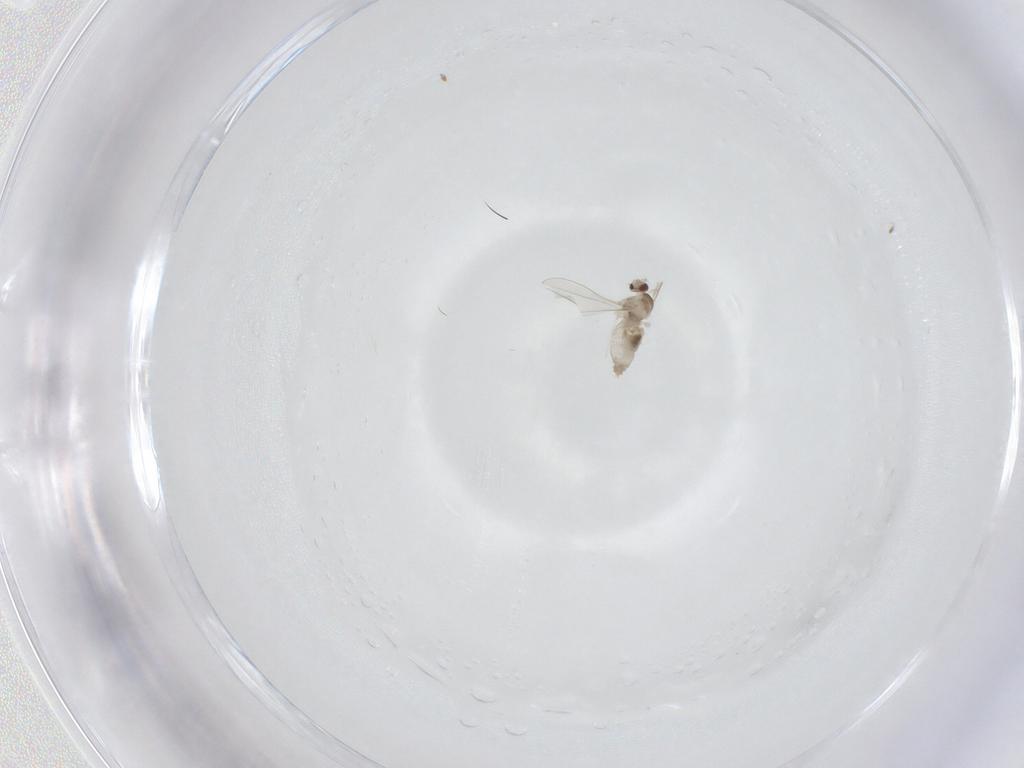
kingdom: Animalia
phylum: Arthropoda
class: Insecta
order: Diptera
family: Cecidomyiidae
